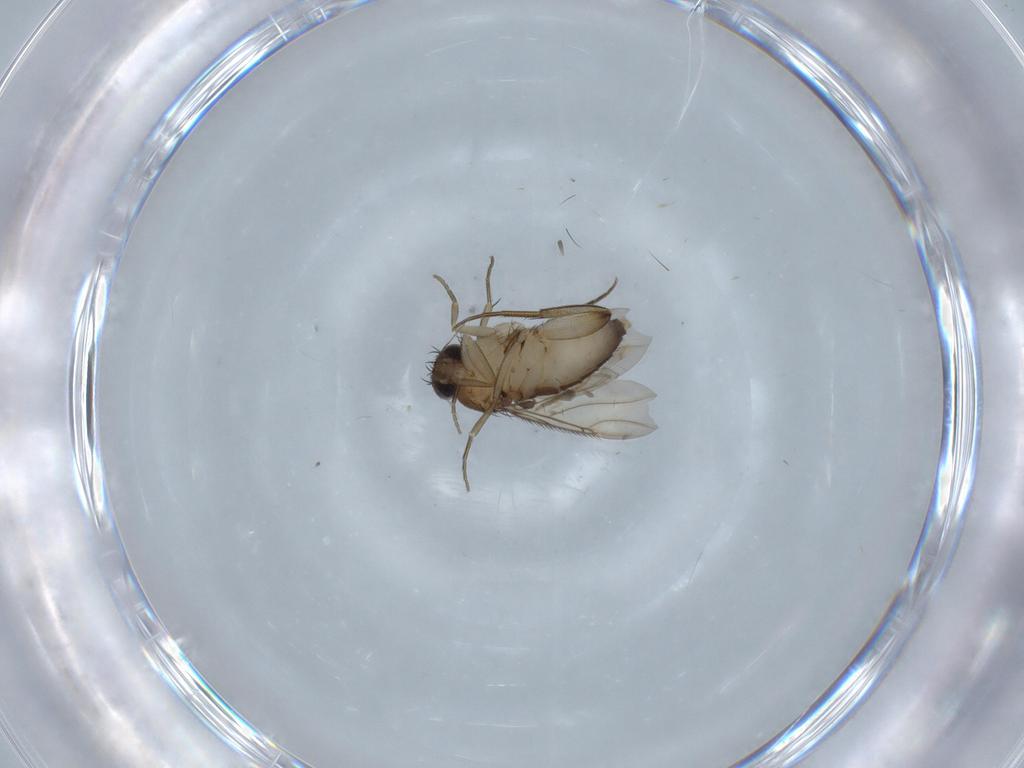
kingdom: Animalia
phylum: Arthropoda
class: Insecta
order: Diptera
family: Phoridae
